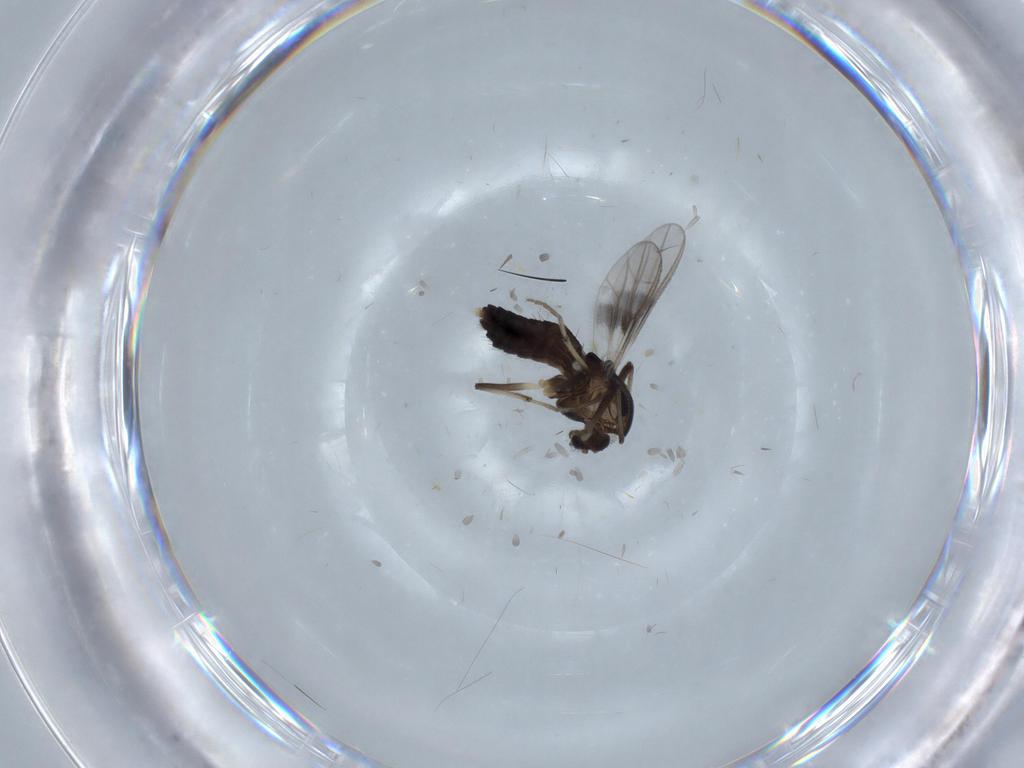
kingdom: Animalia
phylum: Arthropoda
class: Insecta
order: Diptera
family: Chironomidae
